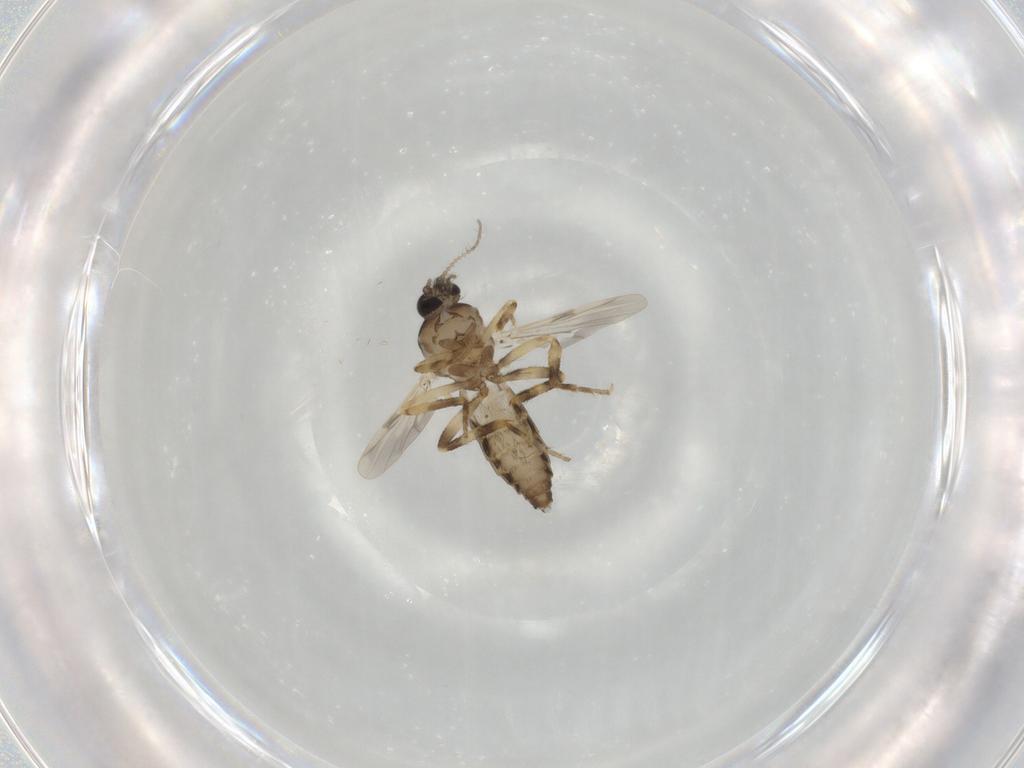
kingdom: Animalia
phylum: Arthropoda
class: Insecta
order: Diptera
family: Ceratopogonidae
